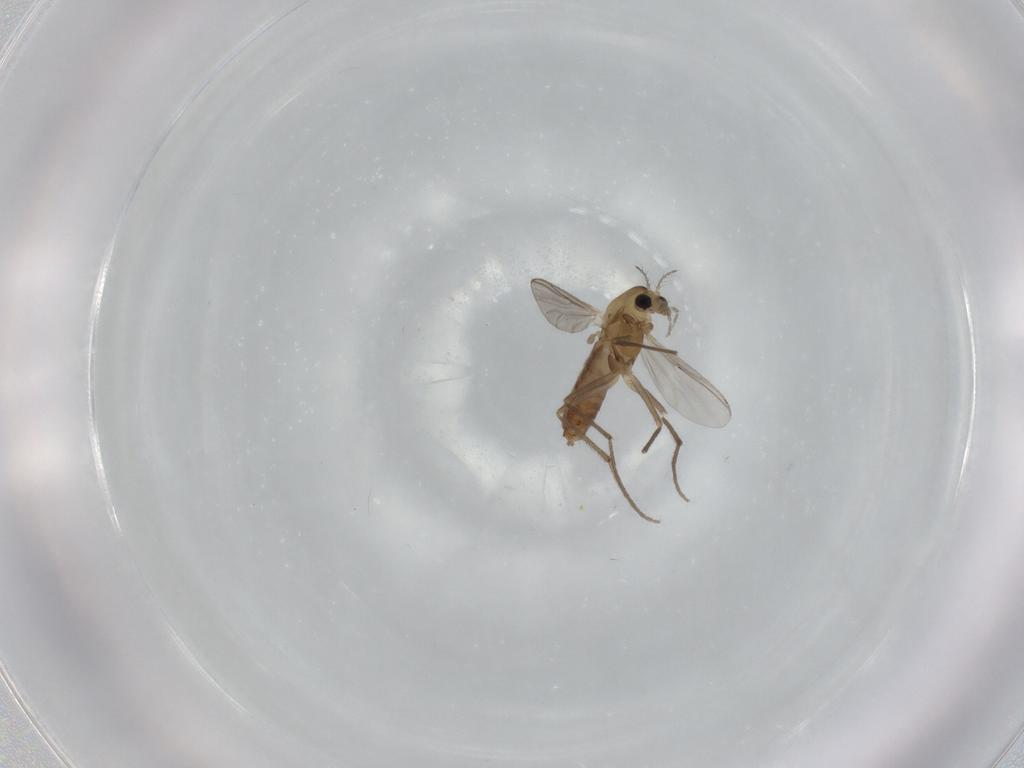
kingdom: Animalia
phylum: Arthropoda
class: Insecta
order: Diptera
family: Chironomidae
